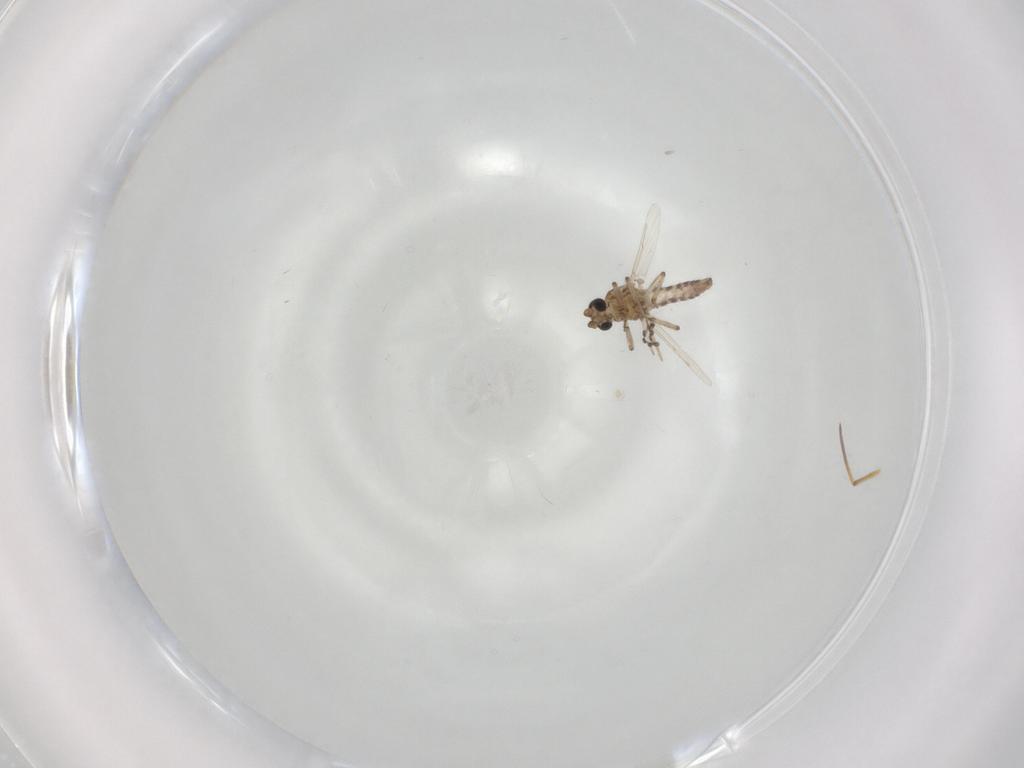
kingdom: Animalia
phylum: Arthropoda
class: Insecta
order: Diptera
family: Ceratopogonidae
